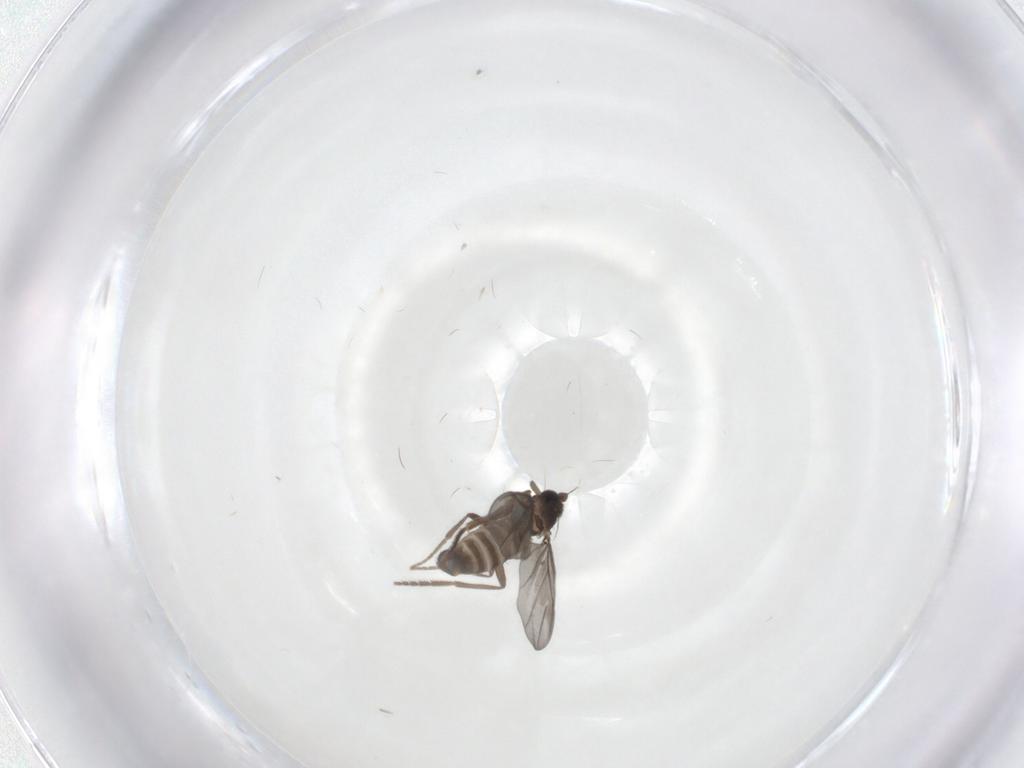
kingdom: Animalia
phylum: Arthropoda
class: Insecta
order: Diptera
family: Phoridae
